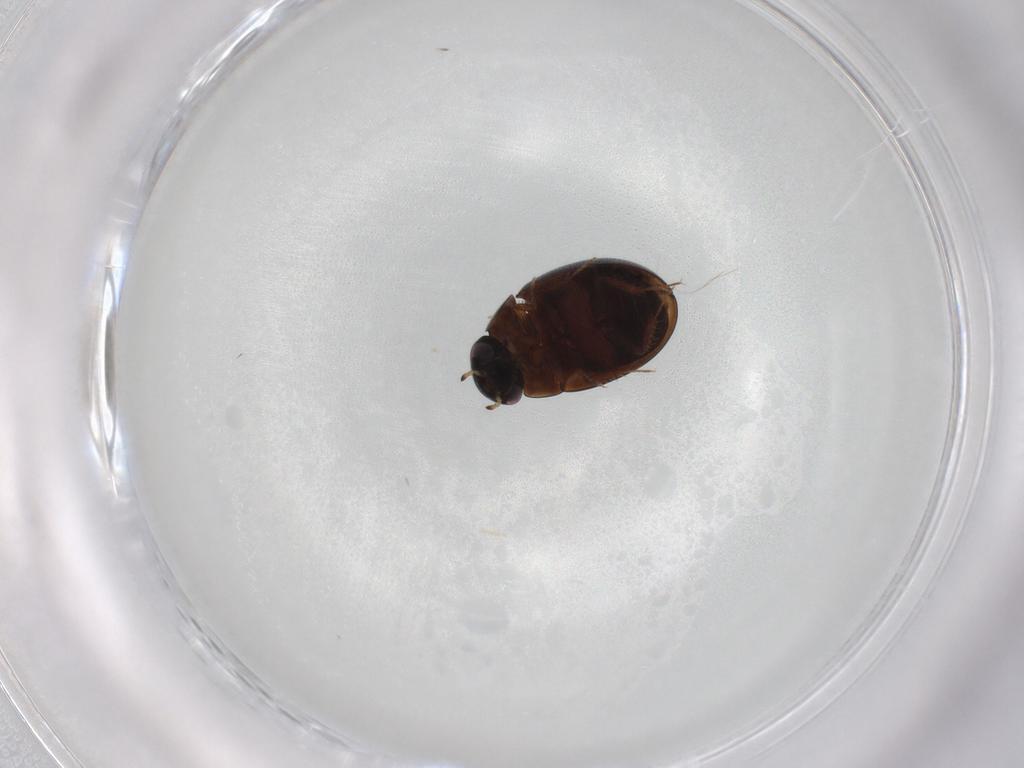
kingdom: Animalia
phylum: Arthropoda
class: Insecta
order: Coleoptera
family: Hydrophilidae
